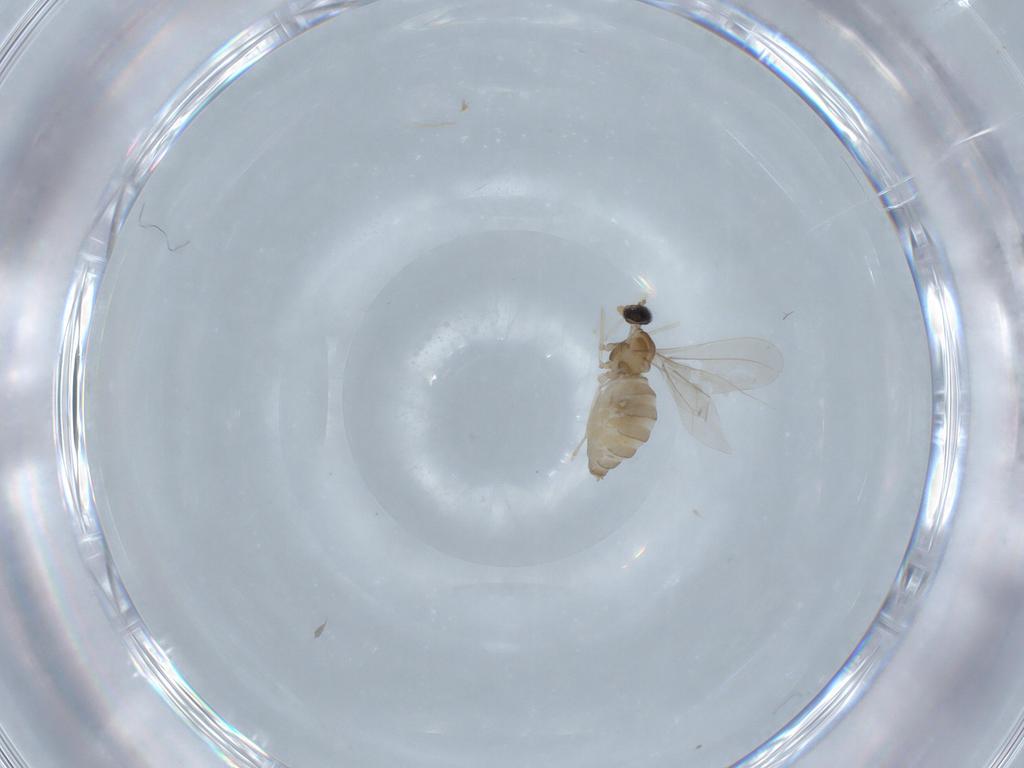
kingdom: Animalia
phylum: Arthropoda
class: Insecta
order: Diptera
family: Cecidomyiidae
